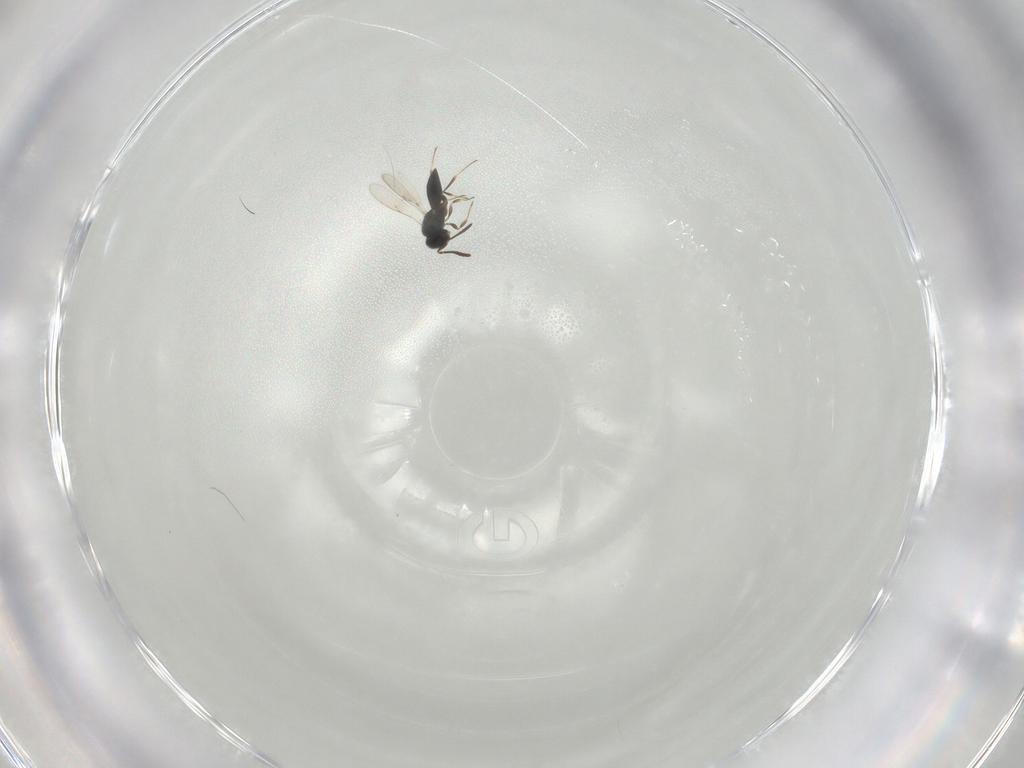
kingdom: Animalia
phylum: Arthropoda
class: Insecta
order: Hymenoptera
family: Scelionidae
